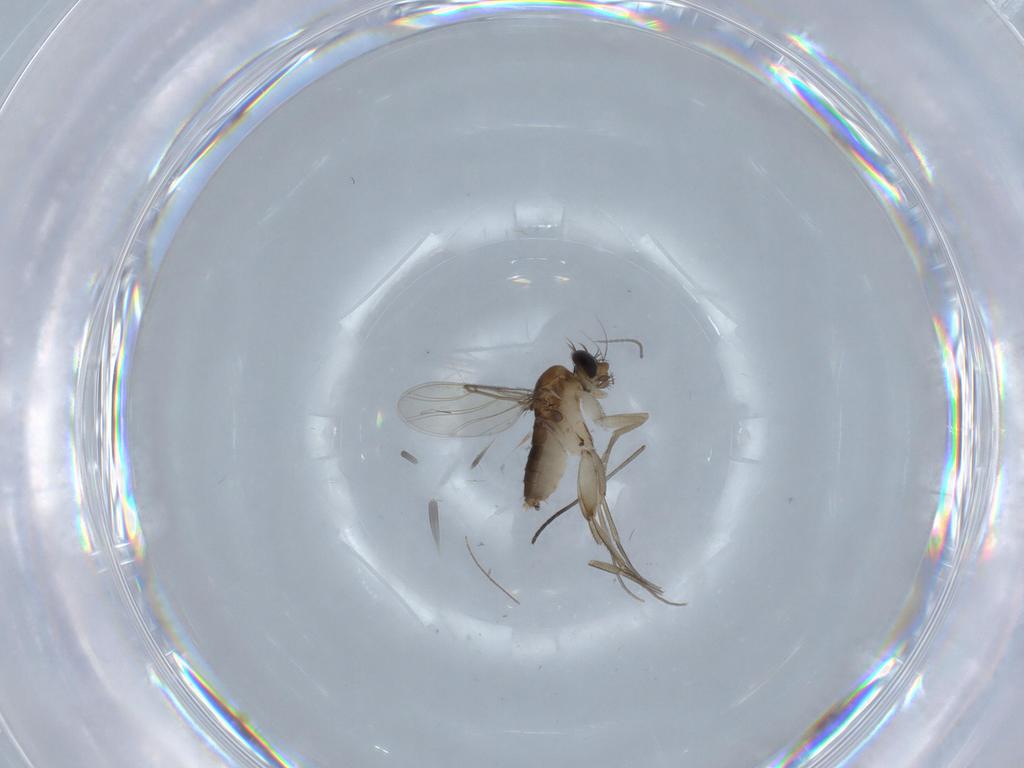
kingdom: Animalia
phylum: Arthropoda
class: Insecta
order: Diptera
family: Phoridae
